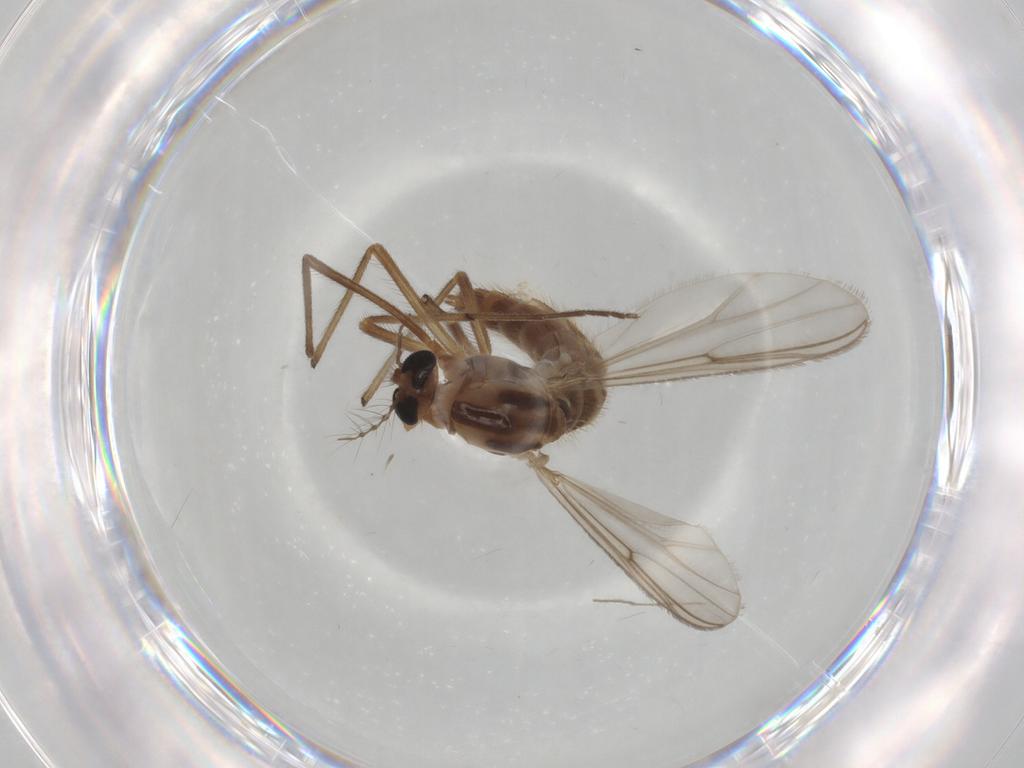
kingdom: Animalia
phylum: Arthropoda
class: Insecta
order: Diptera
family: Chironomidae
